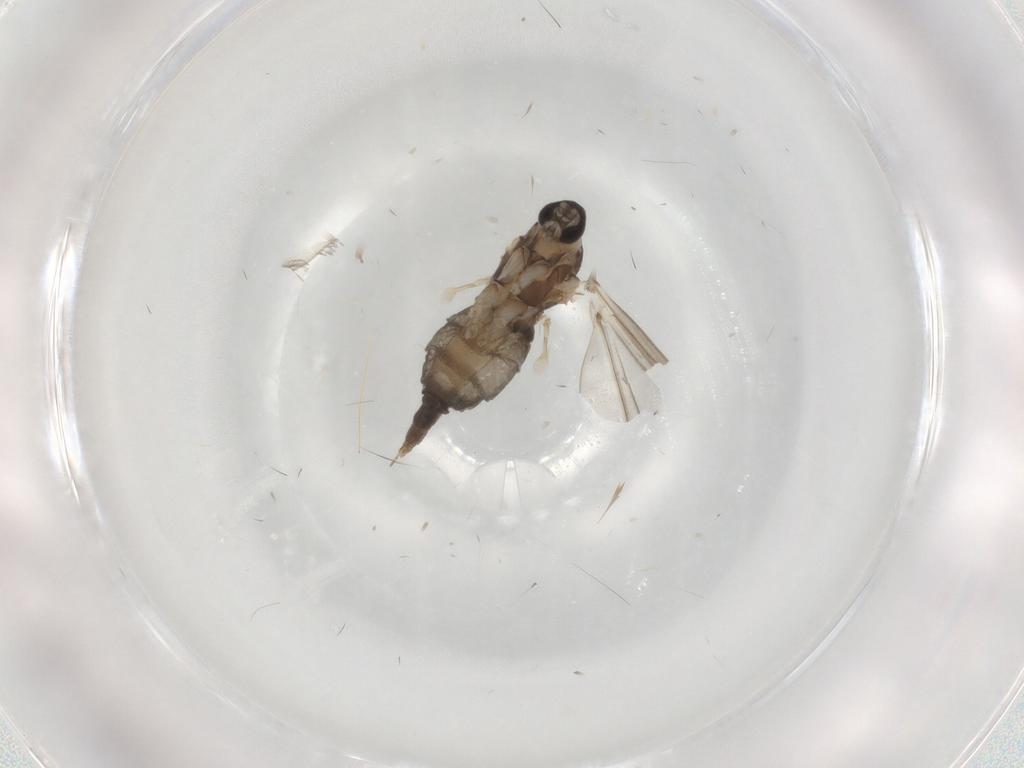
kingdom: Animalia
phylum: Arthropoda
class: Insecta
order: Diptera
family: Cecidomyiidae
